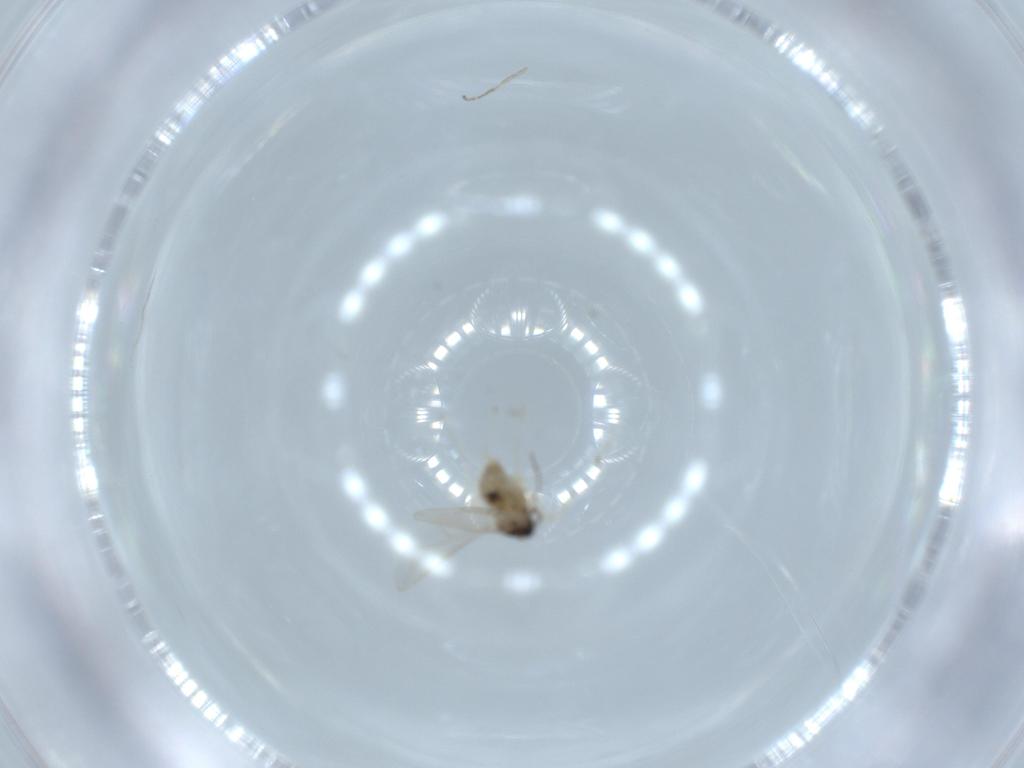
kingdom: Animalia
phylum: Arthropoda
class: Insecta
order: Diptera
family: Cecidomyiidae
